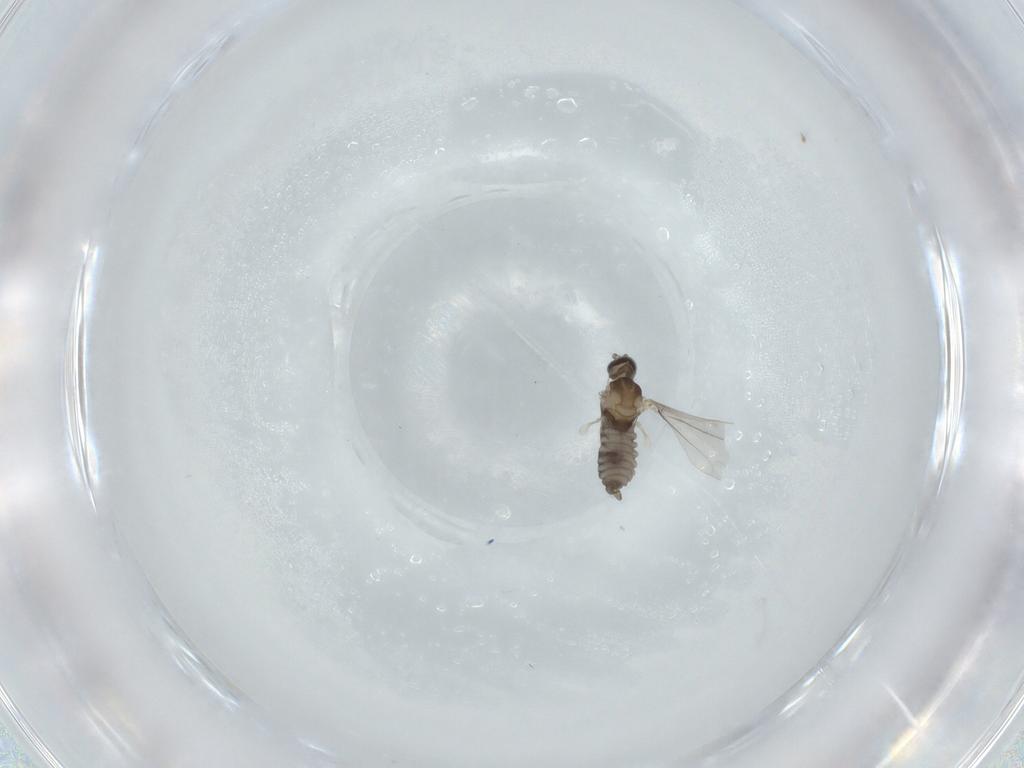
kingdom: Animalia
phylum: Arthropoda
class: Insecta
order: Diptera
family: Cecidomyiidae
